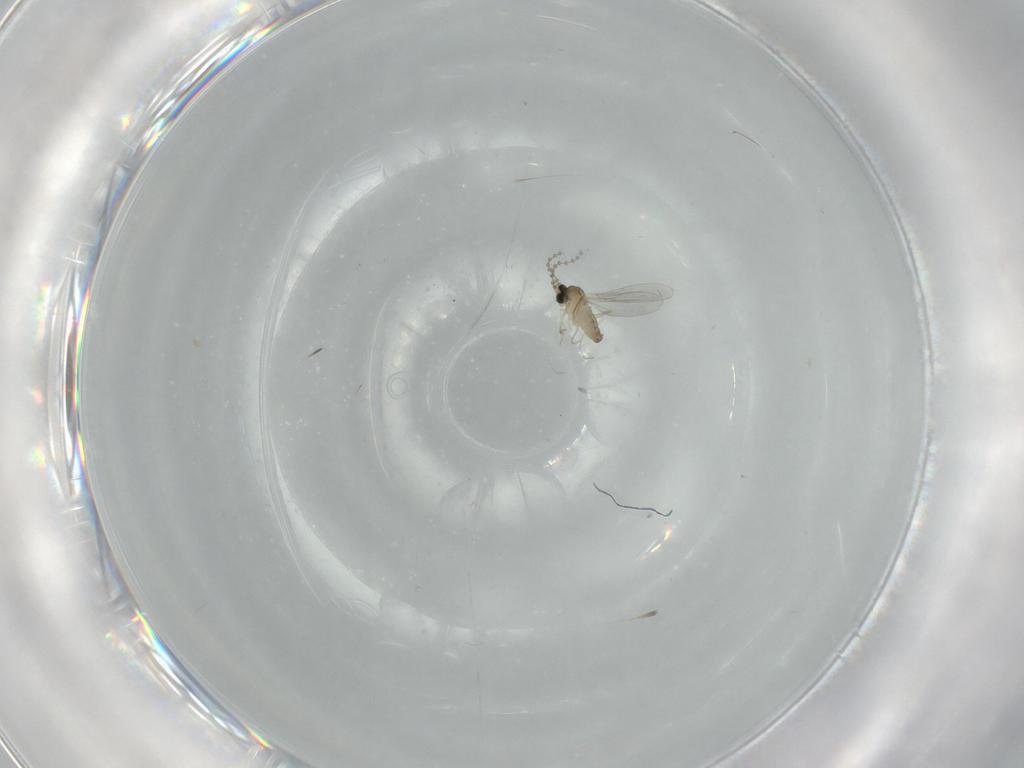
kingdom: Animalia
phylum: Arthropoda
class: Insecta
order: Diptera
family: Cecidomyiidae
